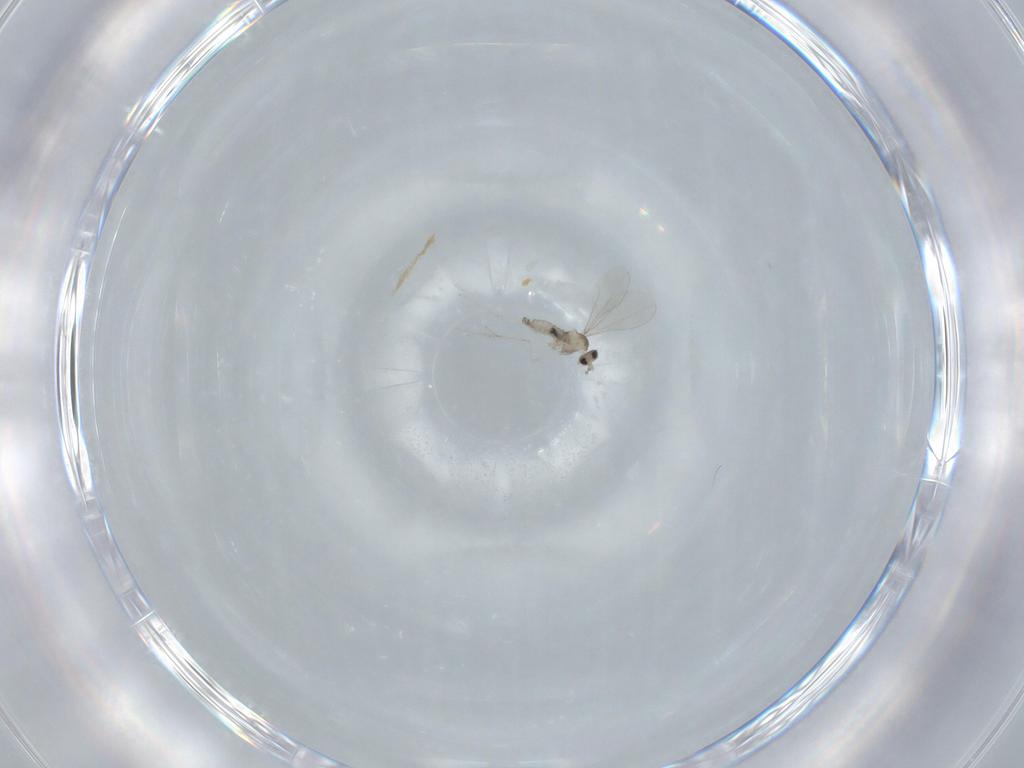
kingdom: Animalia
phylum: Arthropoda
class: Insecta
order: Diptera
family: Cecidomyiidae
